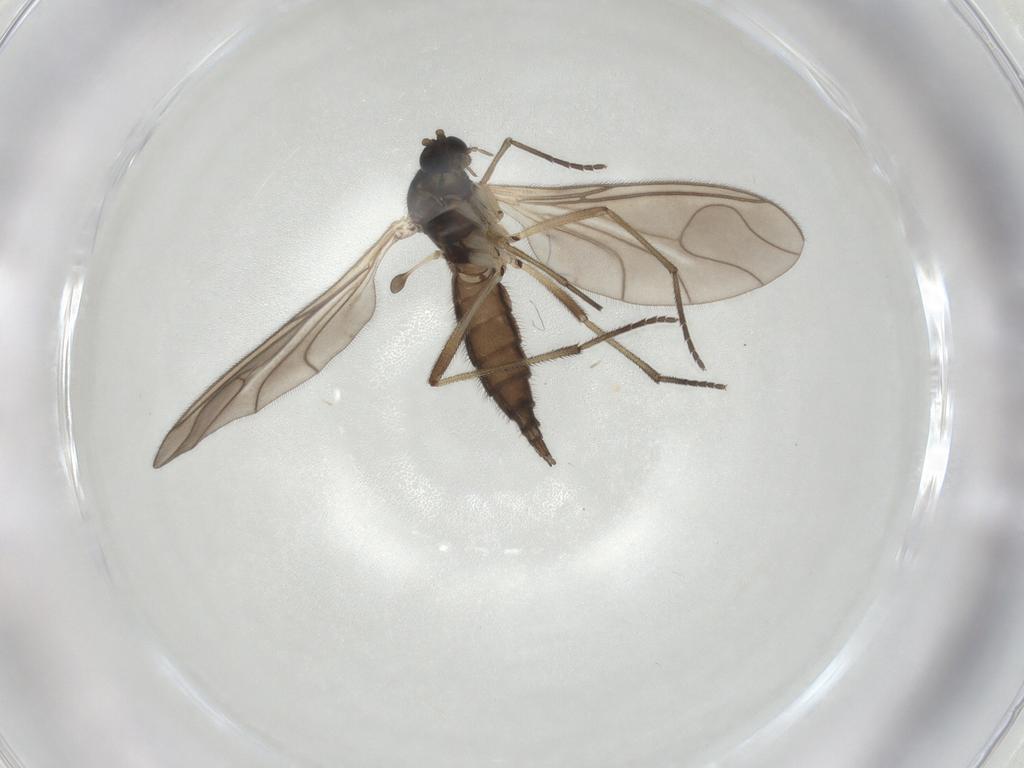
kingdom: Animalia
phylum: Arthropoda
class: Insecta
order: Diptera
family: Sciaridae
